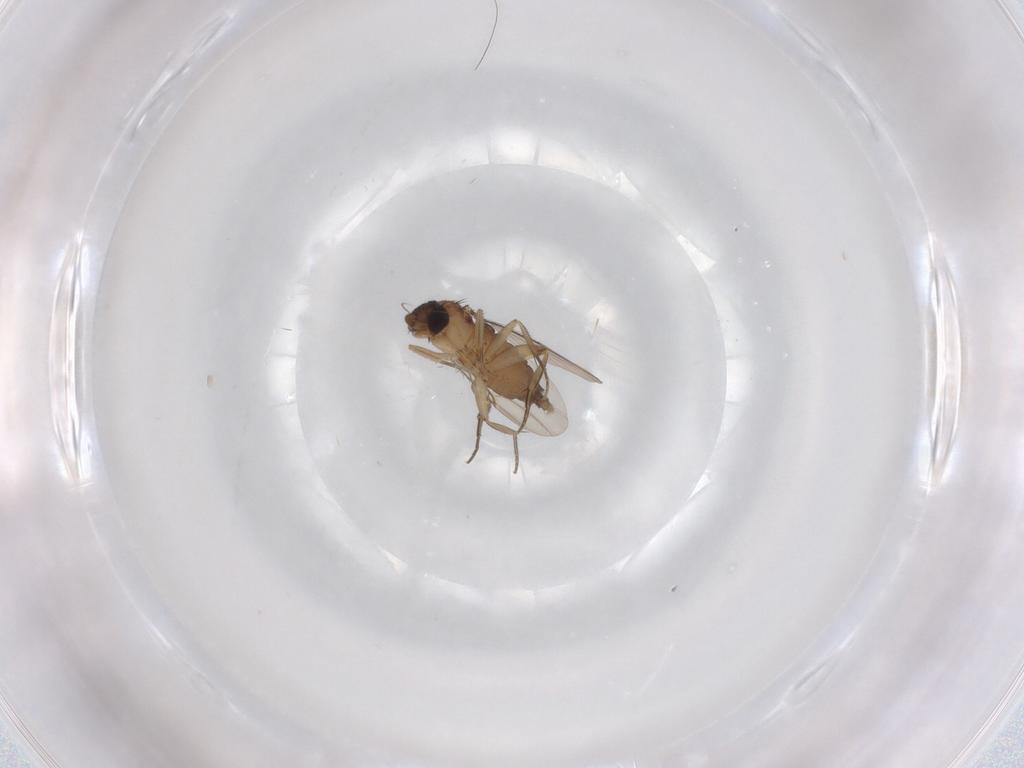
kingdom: Animalia
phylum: Arthropoda
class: Insecta
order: Diptera
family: Phoridae
